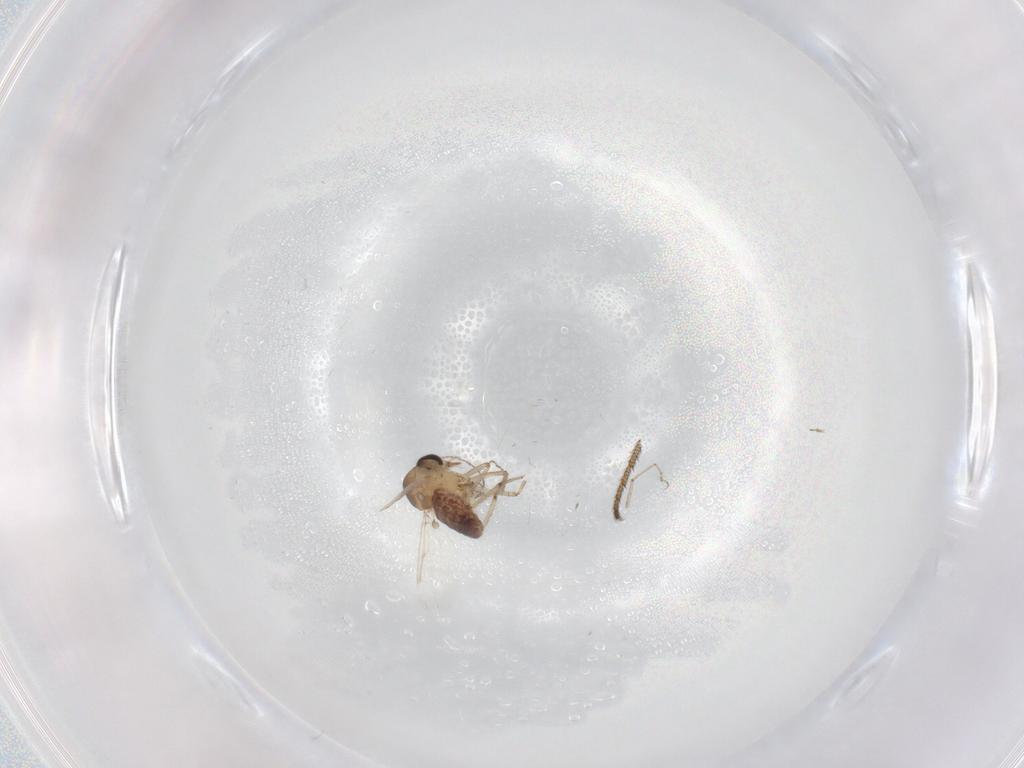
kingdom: Animalia
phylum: Arthropoda
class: Insecta
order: Diptera
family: Ceratopogonidae
